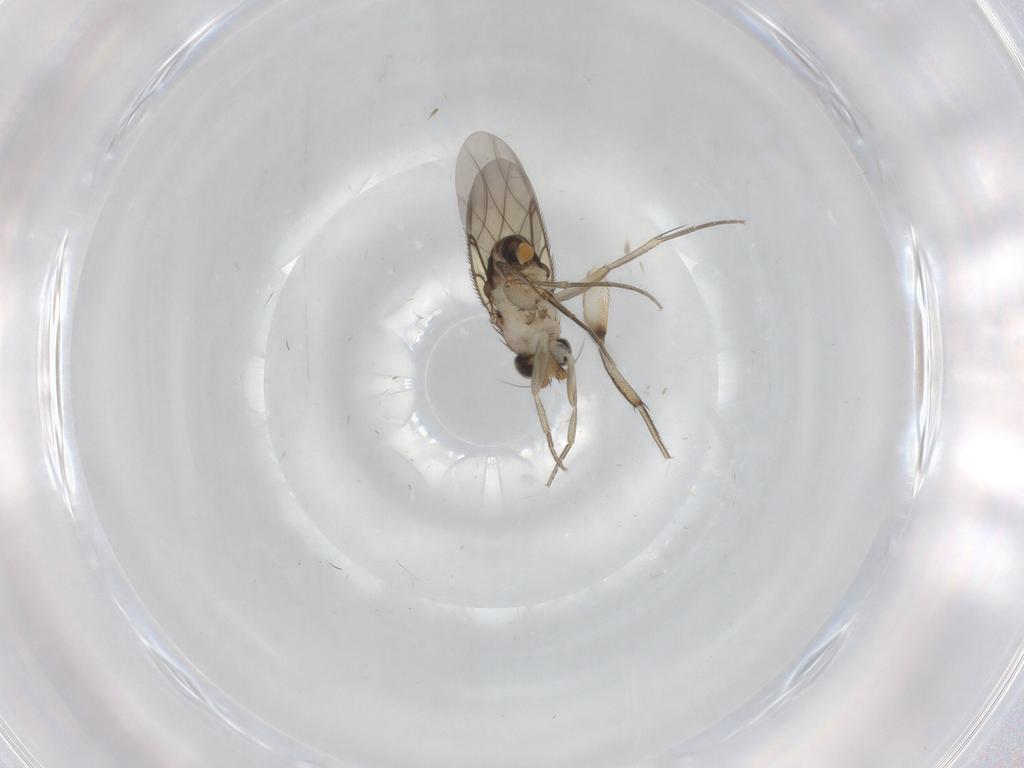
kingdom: Animalia
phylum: Arthropoda
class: Insecta
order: Diptera
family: Phoridae
